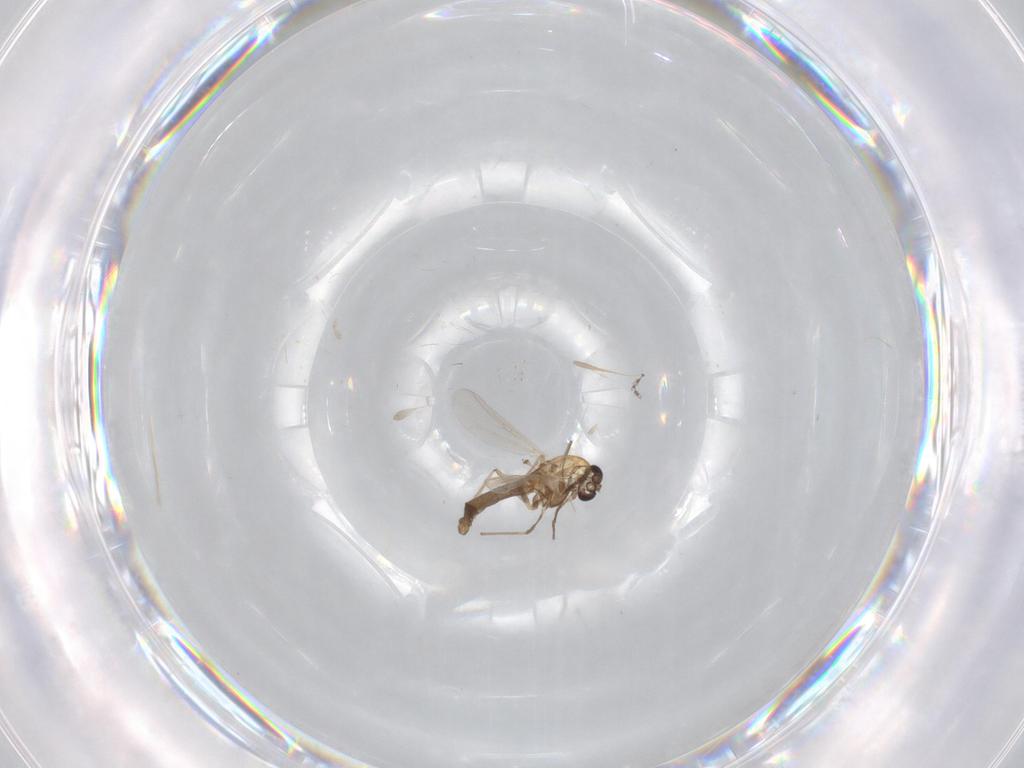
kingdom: Animalia
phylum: Arthropoda
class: Insecta
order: Diptera
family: Chironomidae
